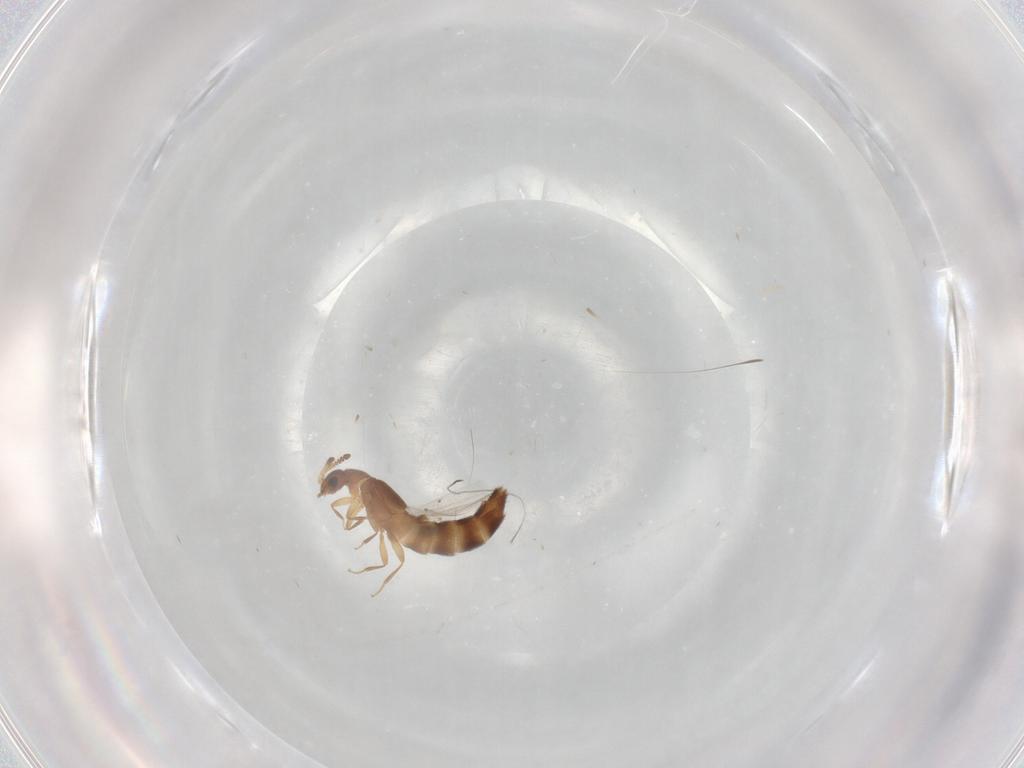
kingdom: Animalia
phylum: Arthropoda
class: Insecta
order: Coleoptera
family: Staphylinidae
